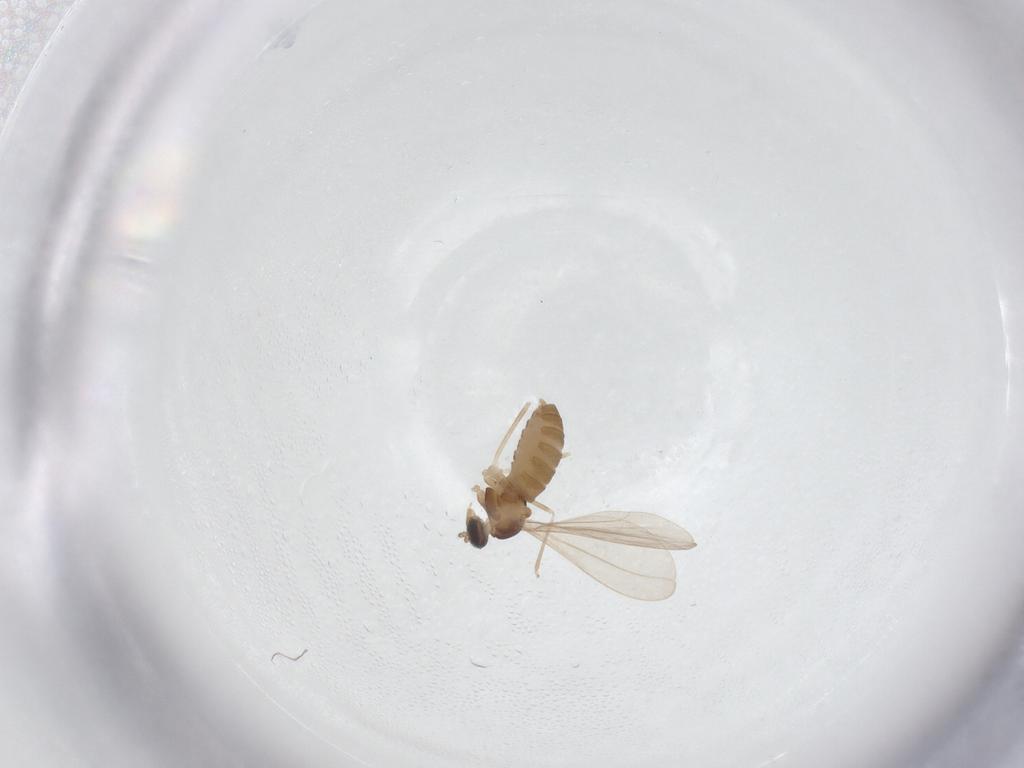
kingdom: Animalia
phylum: Arthropoda
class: Insecta
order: Diptera
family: Cecidomyiidae
